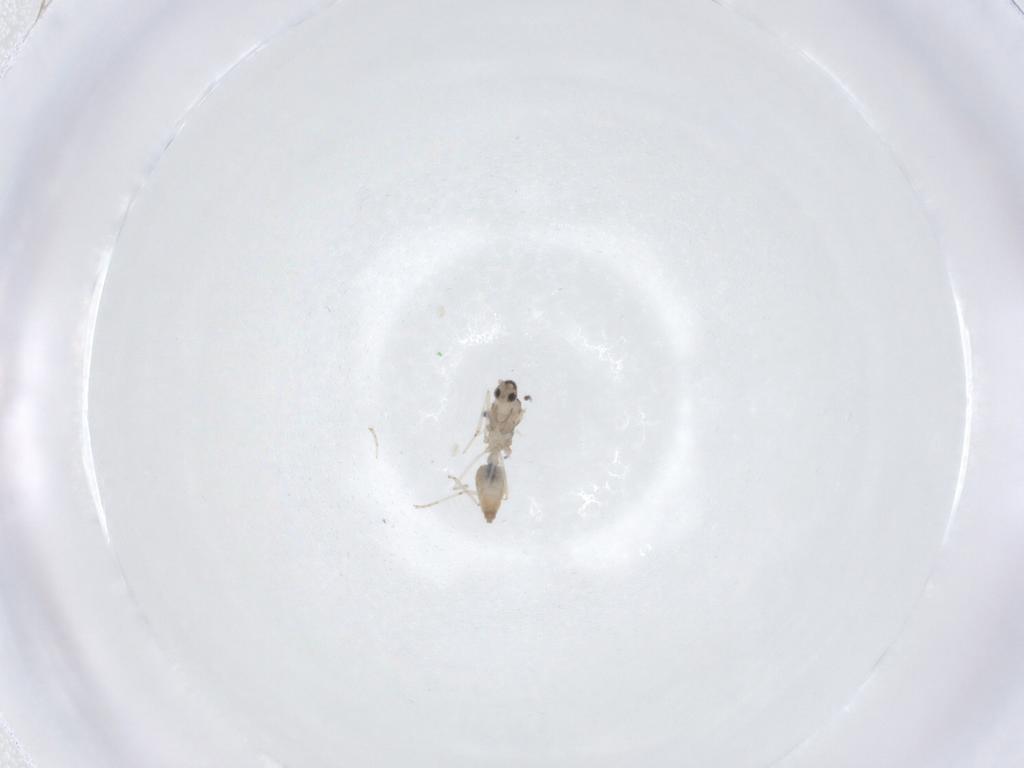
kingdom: Animalia
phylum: Arthropoda
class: Insecta
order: Diptera
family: Cecidomyiidae
